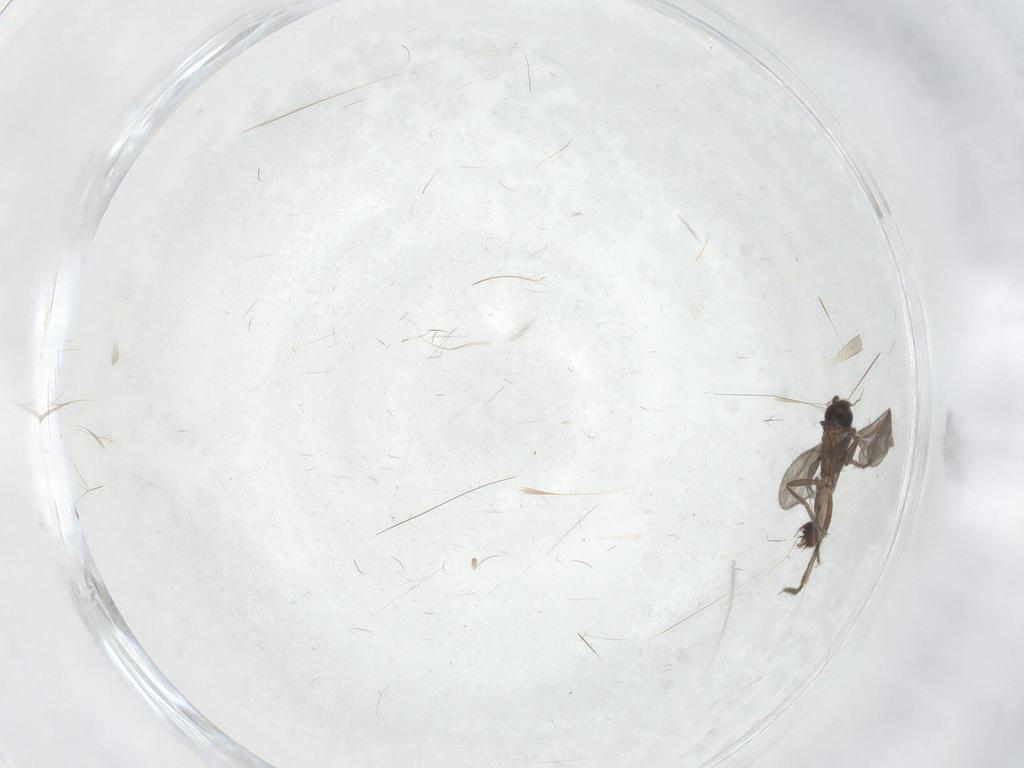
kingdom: Animalia
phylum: Arthropoda
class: Insecta
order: Diptera
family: Phoridae
